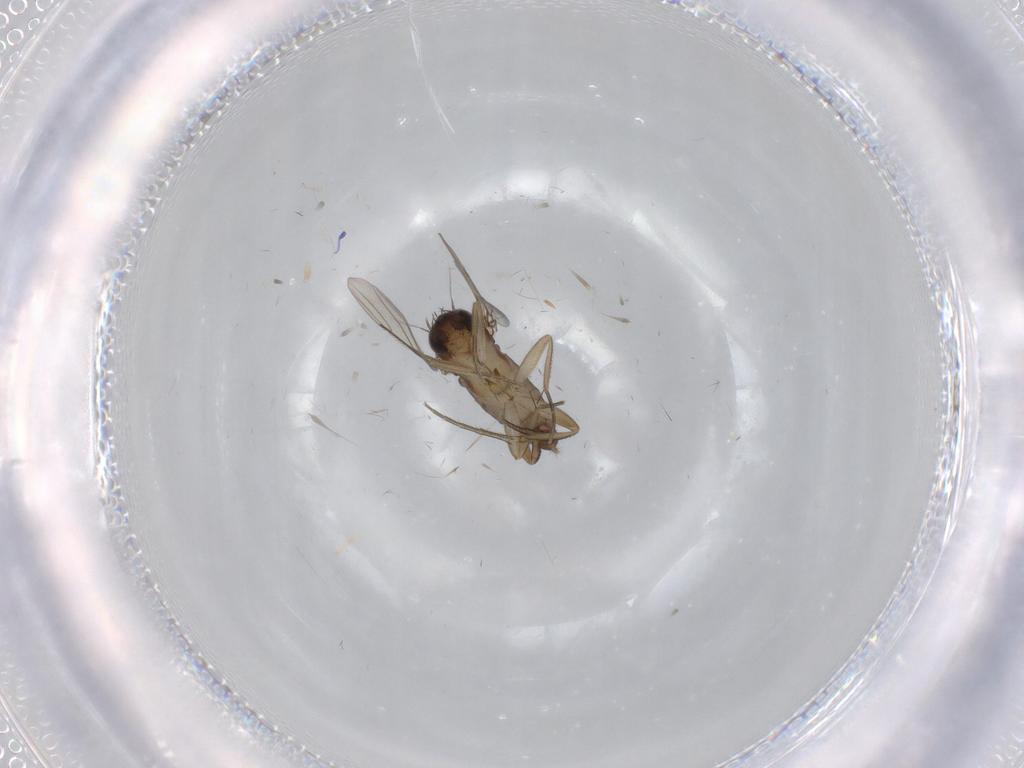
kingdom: Animalia
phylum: Arthropoda
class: Insecta
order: Diptera
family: Phoridae
